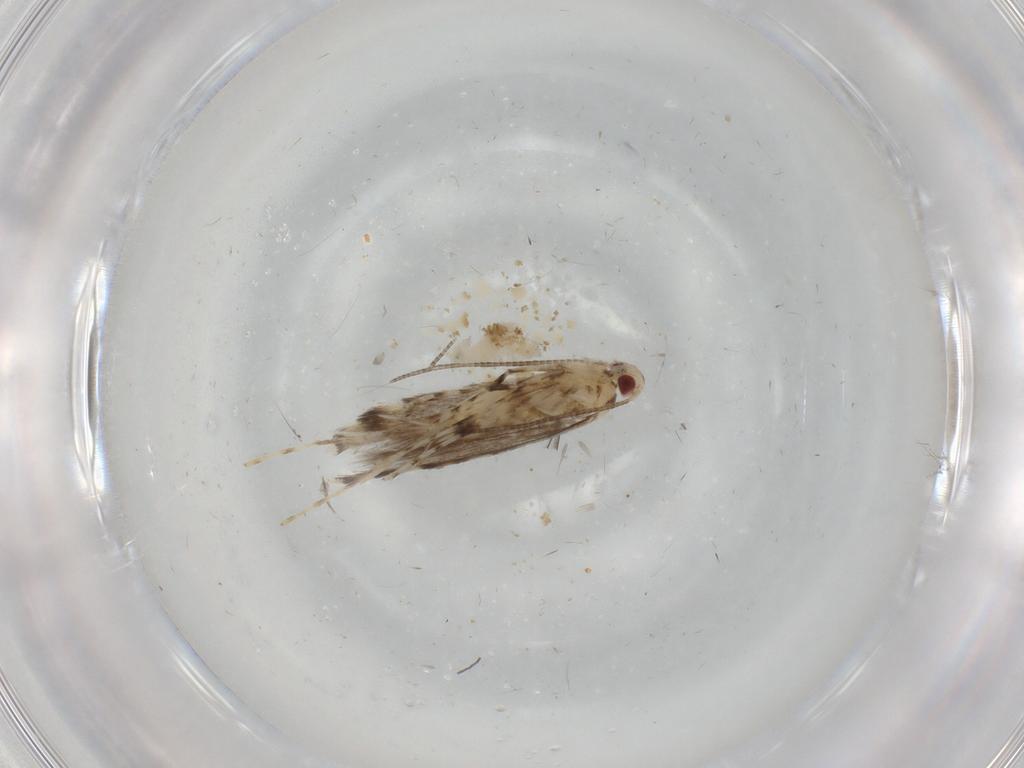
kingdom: Animalia
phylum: Arthropoda
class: Insecta
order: Lepidoptera
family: Gracillariidae
